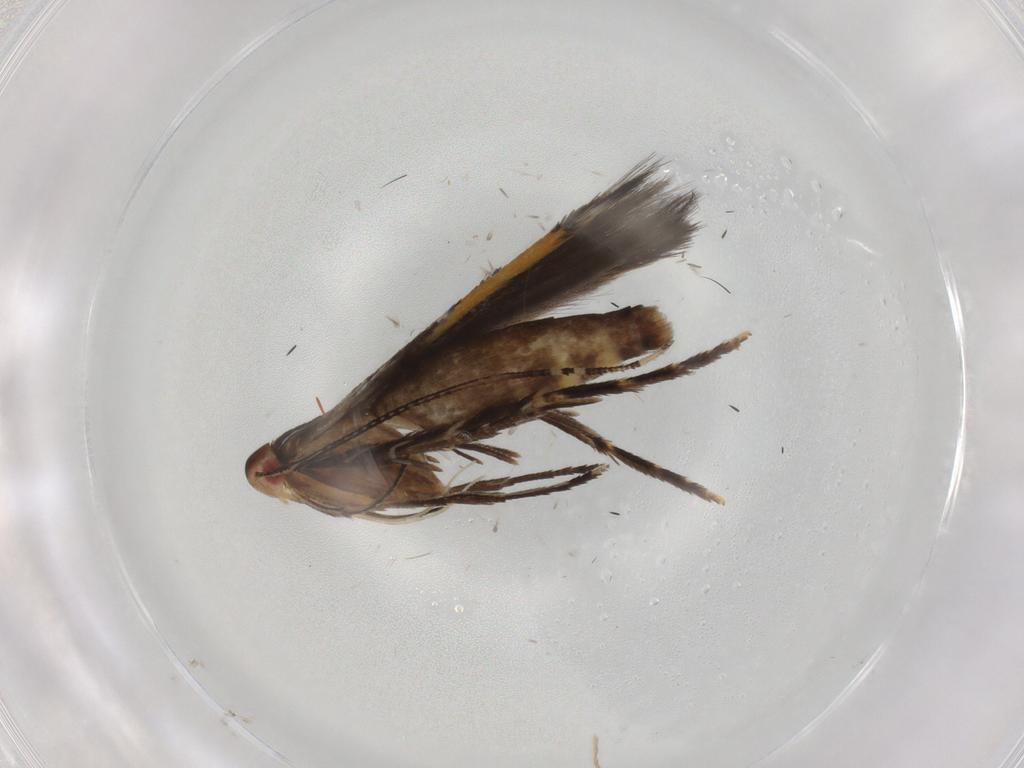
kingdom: Animalia
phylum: Arthropoda
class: Insecta
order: Lepidoptera
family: Cosmopterigidae
